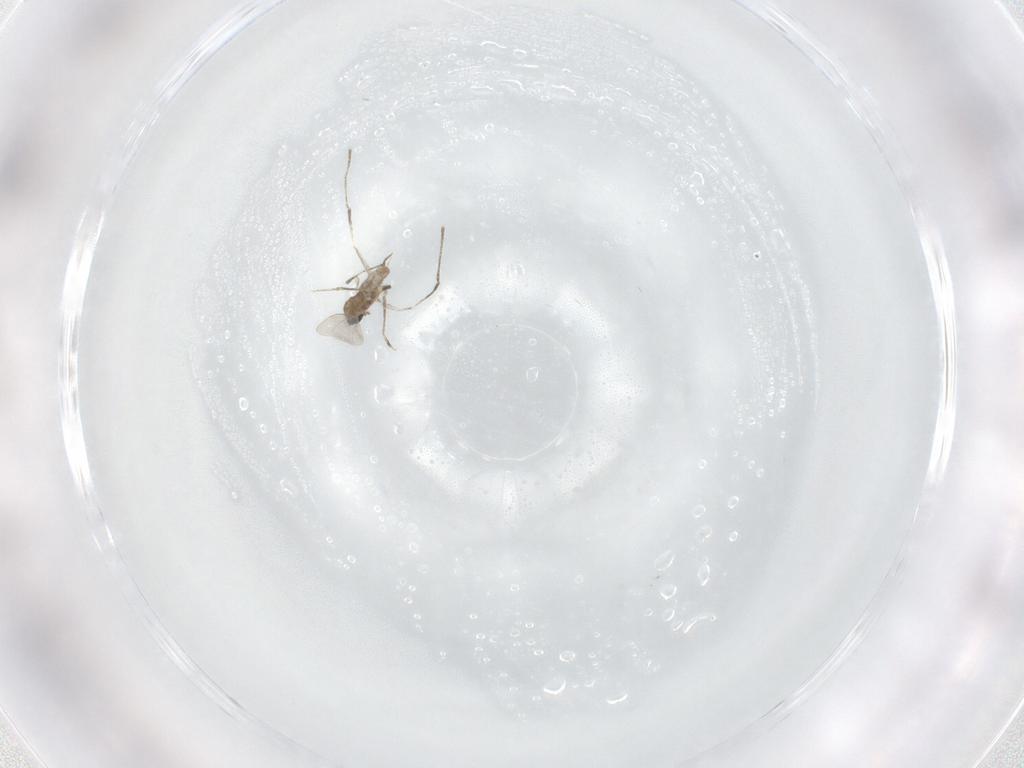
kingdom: Animalia
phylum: Arthropoda
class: Insecta
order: Diptera
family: Cecidomyiidae
